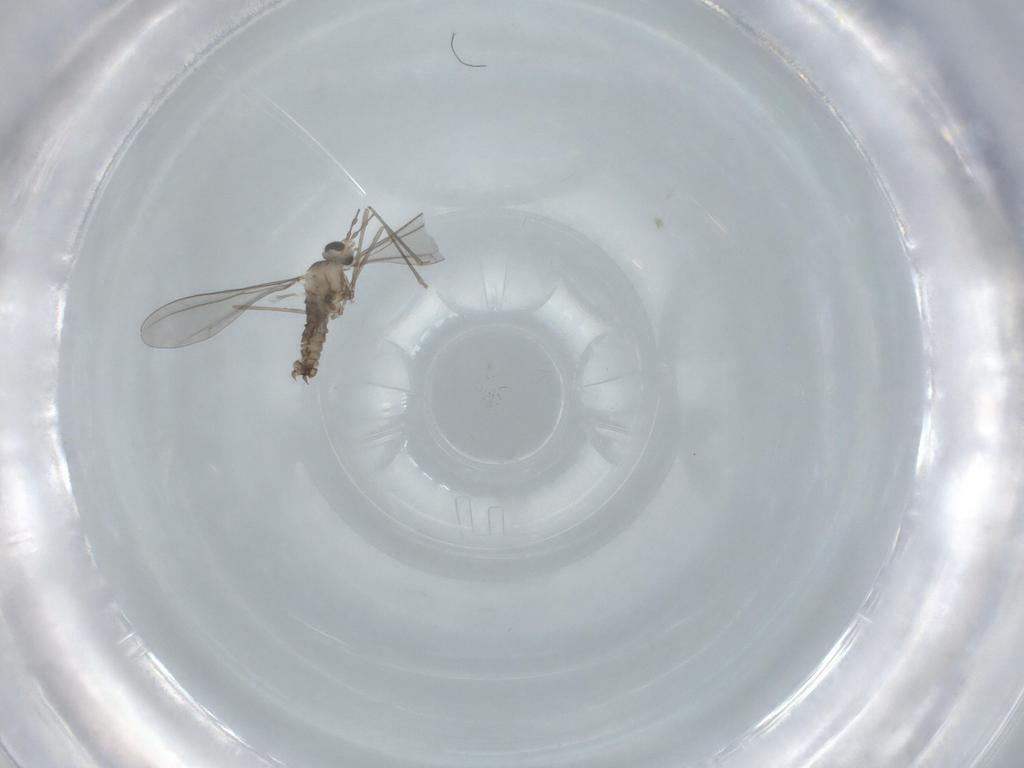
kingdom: Animalia
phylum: Arthropoda
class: Insecta
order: Diptera
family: Cecidomyiidae
